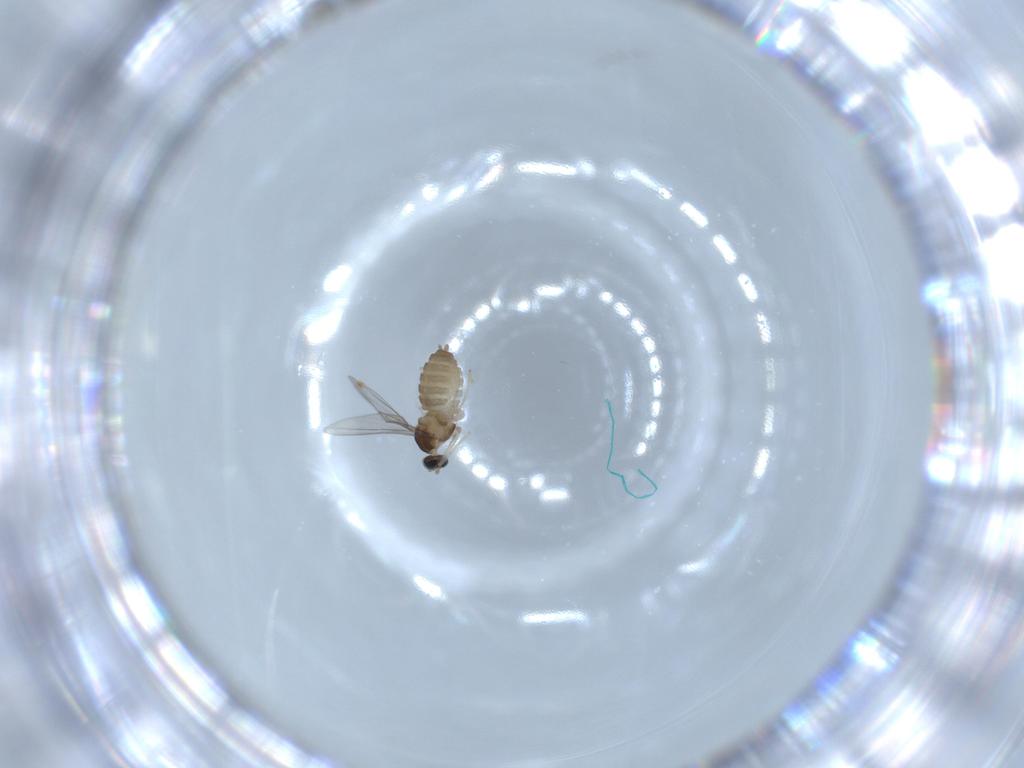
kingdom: Animalia
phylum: Arthropoda
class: Insecta
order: Diptera
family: Cecidomyiidae
